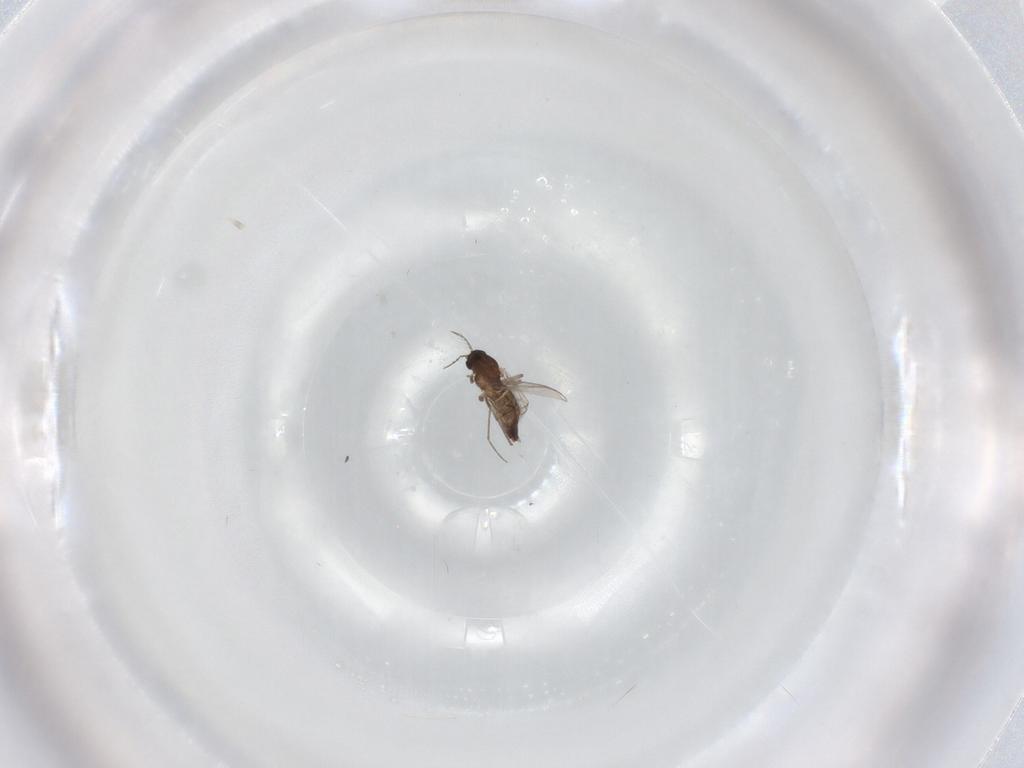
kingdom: Animalia
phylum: Arthropoda
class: Insecta
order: Diptera
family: Chironomidae
